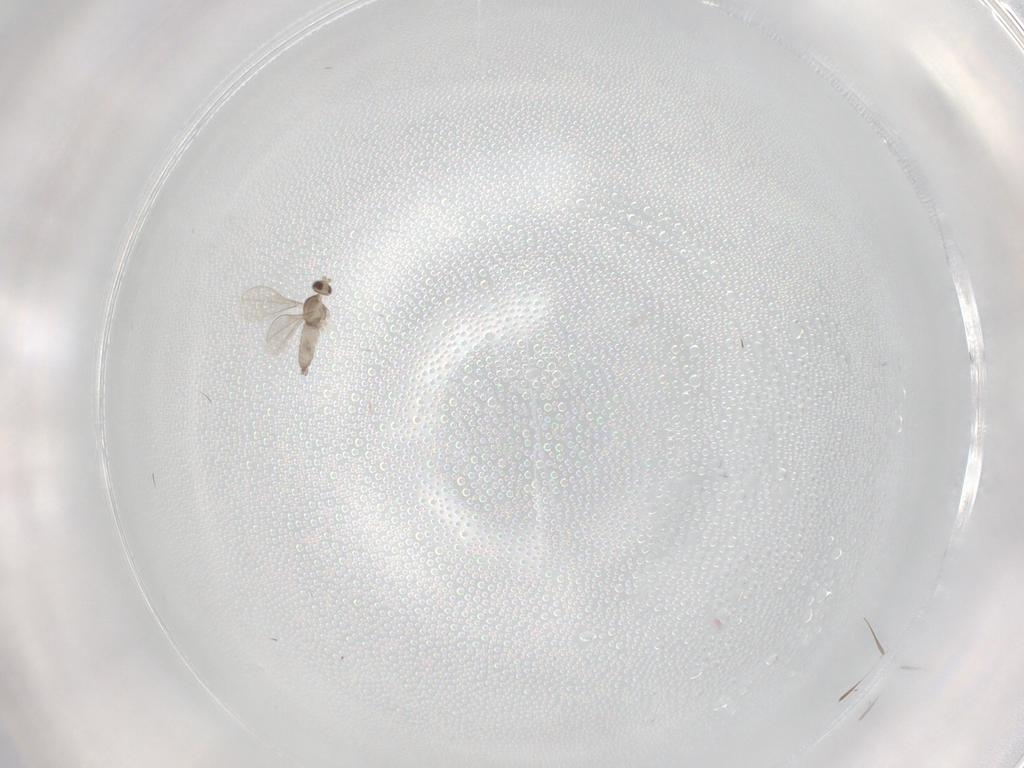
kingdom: Animalia
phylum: Arthropoda
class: Insecta
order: Diptera
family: Cecidomyiidae
